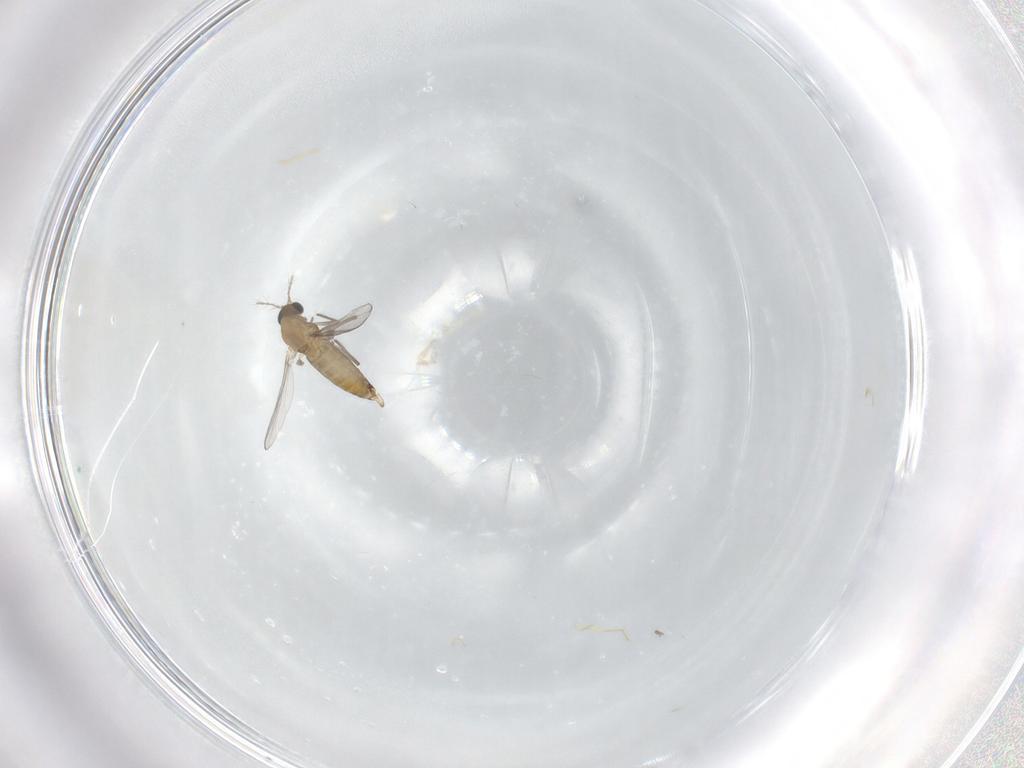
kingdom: Animalia
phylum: Arthropoda
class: Insecta
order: Diptera
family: Chironomidae
